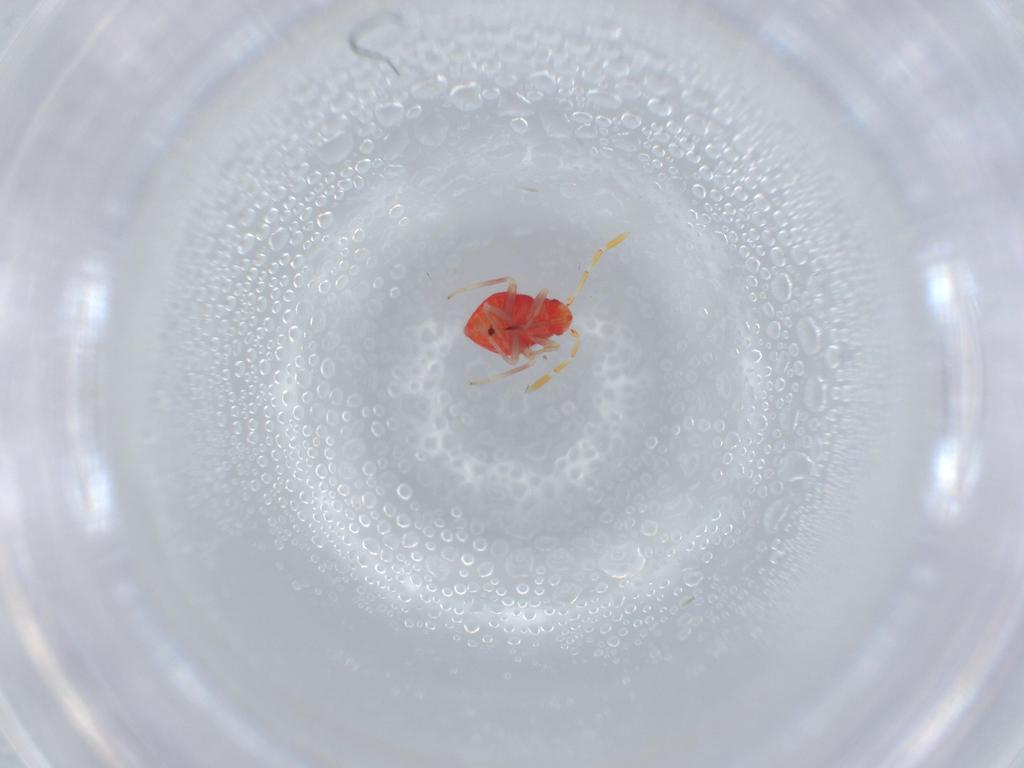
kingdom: Animalia
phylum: Arthropoda
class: Insecta
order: Hemiptera
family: Miridae
